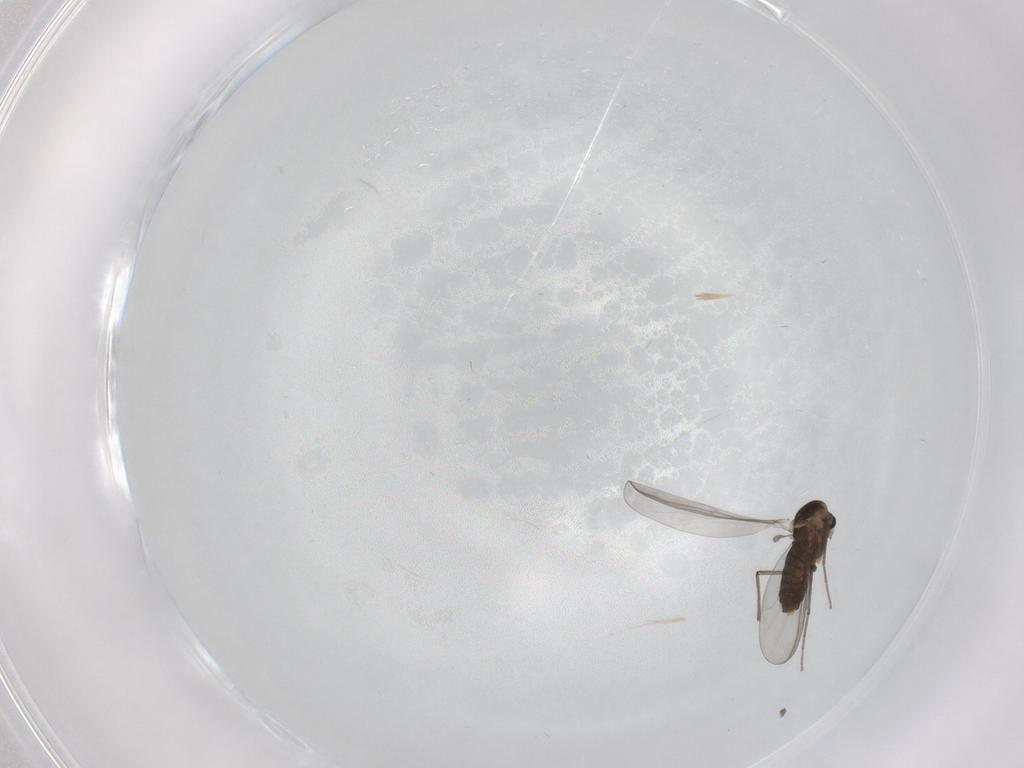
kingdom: Animalia
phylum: Arthropoda
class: Insecta
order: Diptera
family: Chironomidae
